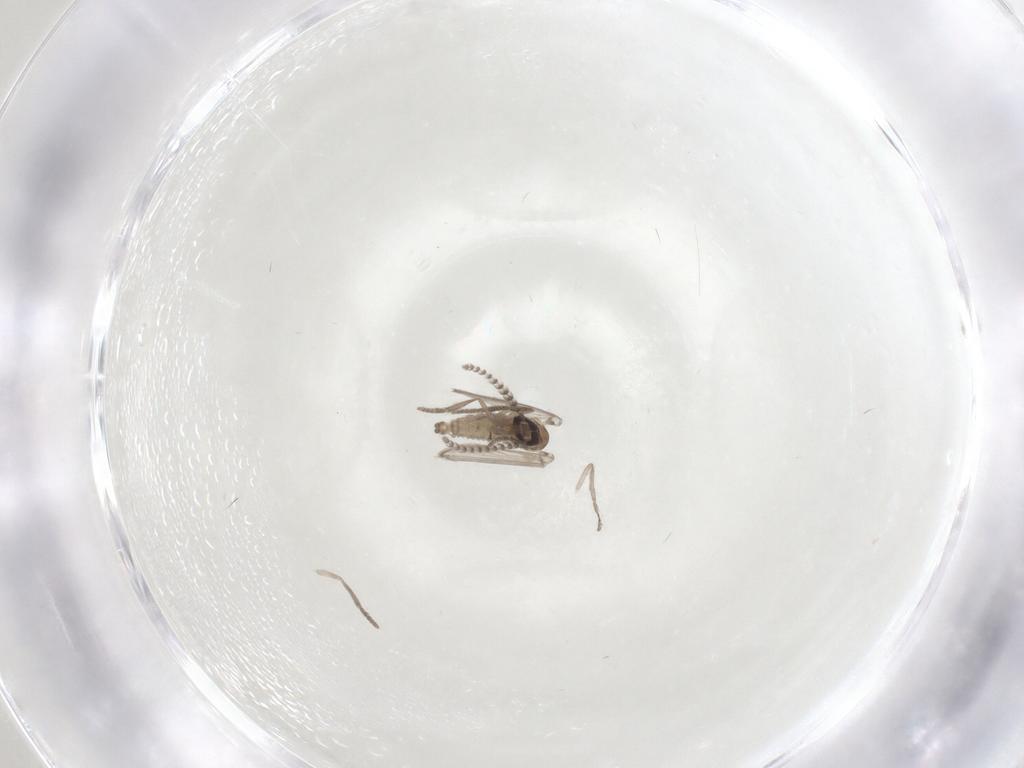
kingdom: Animalia
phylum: Arthropoda
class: Insecta
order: Diptera
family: Psychodidae
